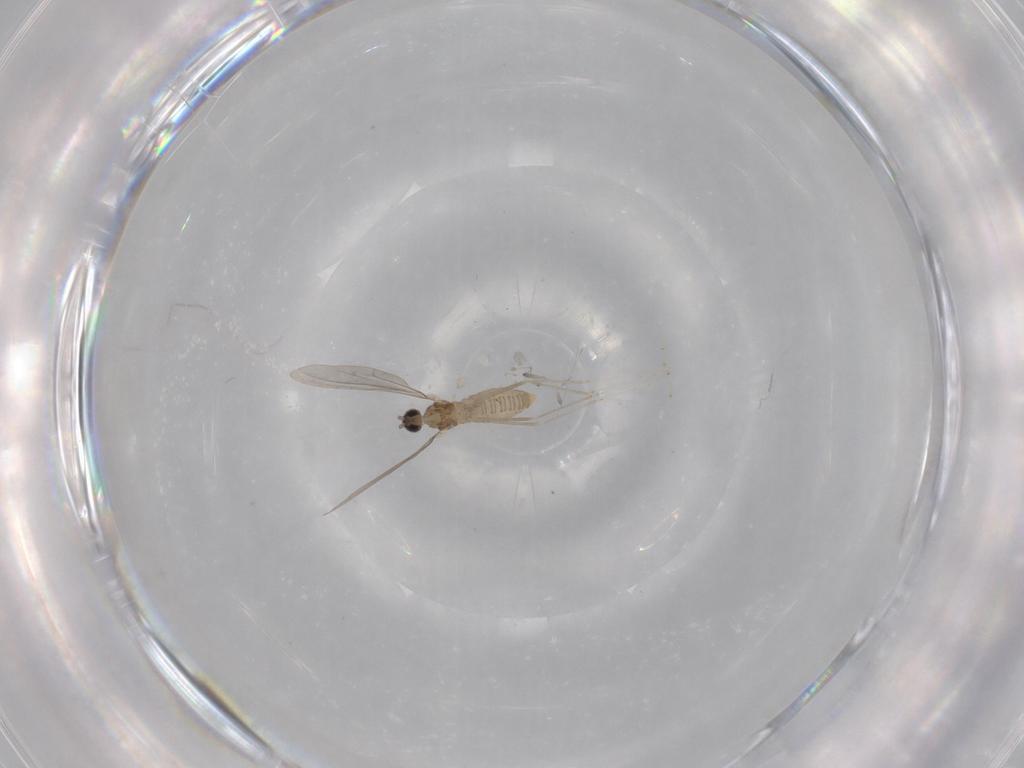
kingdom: Animalia
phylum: Arthropoda
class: Insecta
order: Diptera
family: Cecidomyiidae
